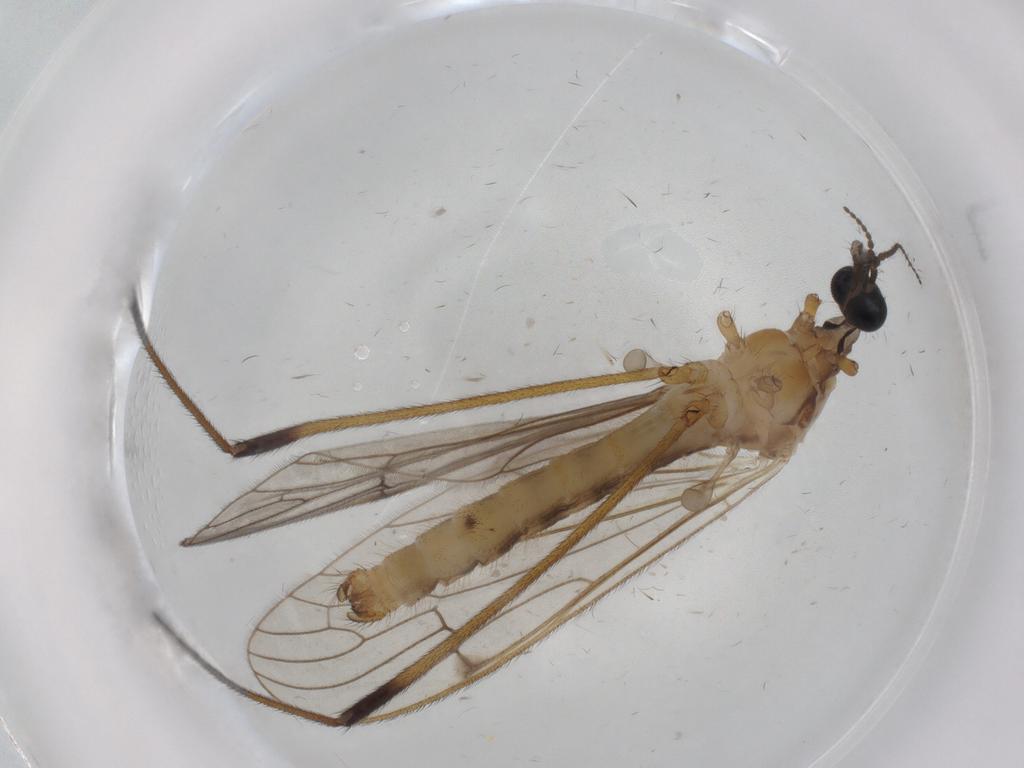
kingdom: Animalia
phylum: Arthropoda
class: Insecta
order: Diptera
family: Limoniidae
